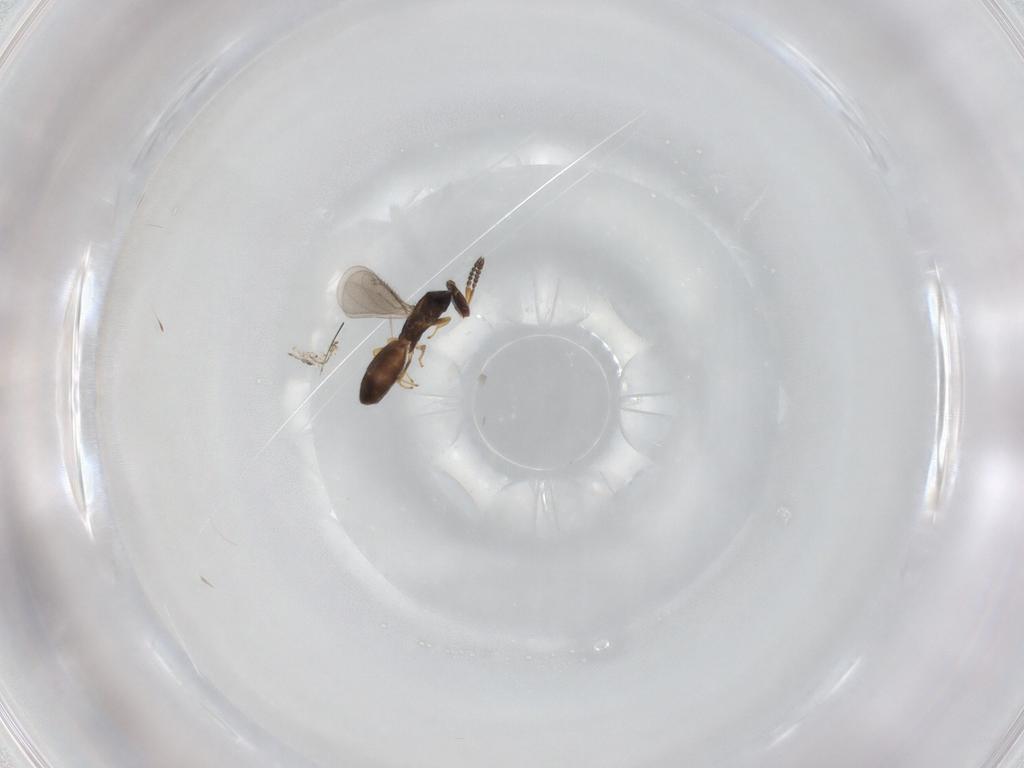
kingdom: Animalia
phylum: Arthropoda
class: Insecta
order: Hymenoptera
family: Eulophidae
